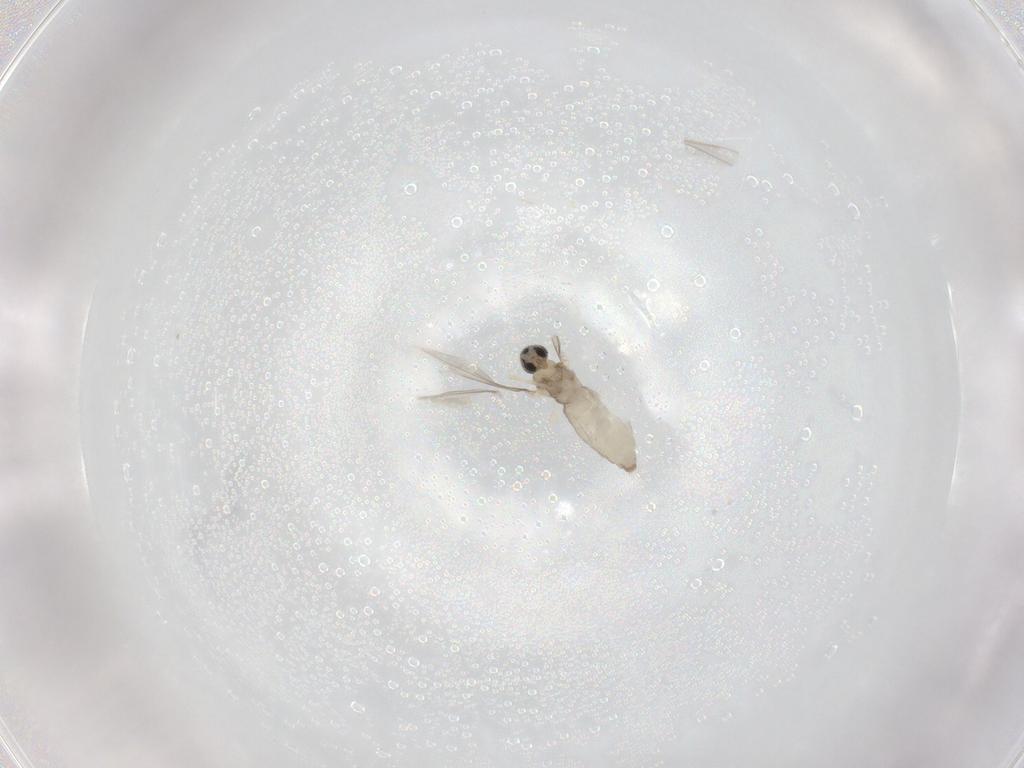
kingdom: Animalia
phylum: Arthropoda
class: Insecta
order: Diptera
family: Cecidomyiidae
